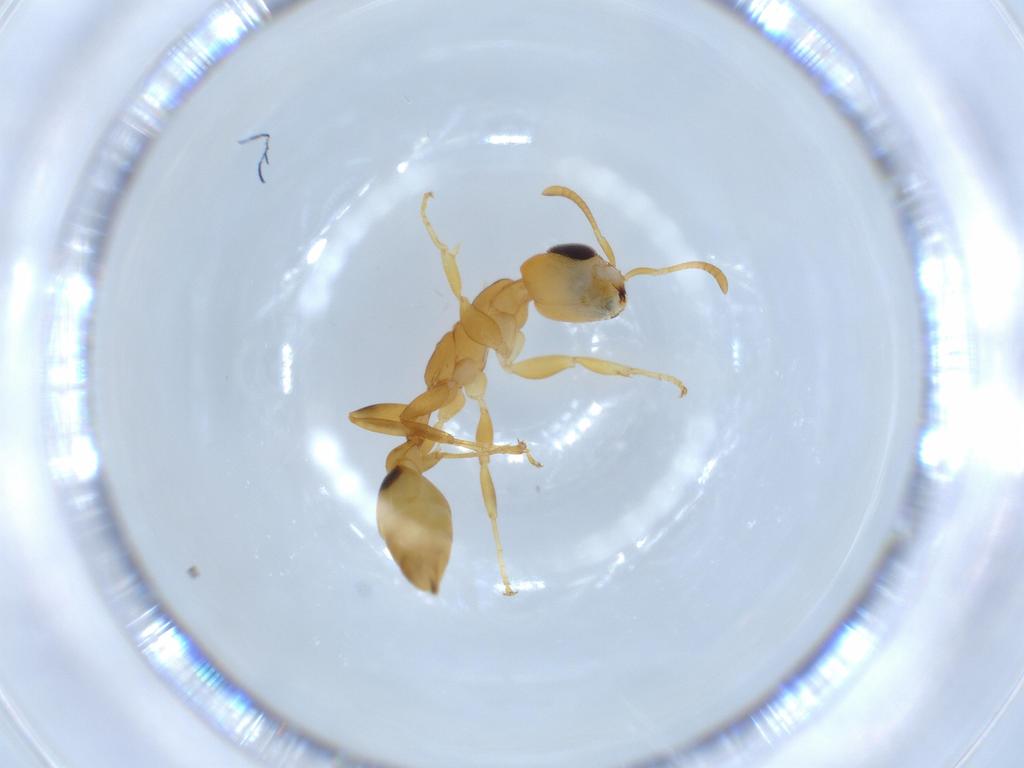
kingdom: Animalia
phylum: Arthropoda
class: Insecta
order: Hymenoptera
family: Formicidae
